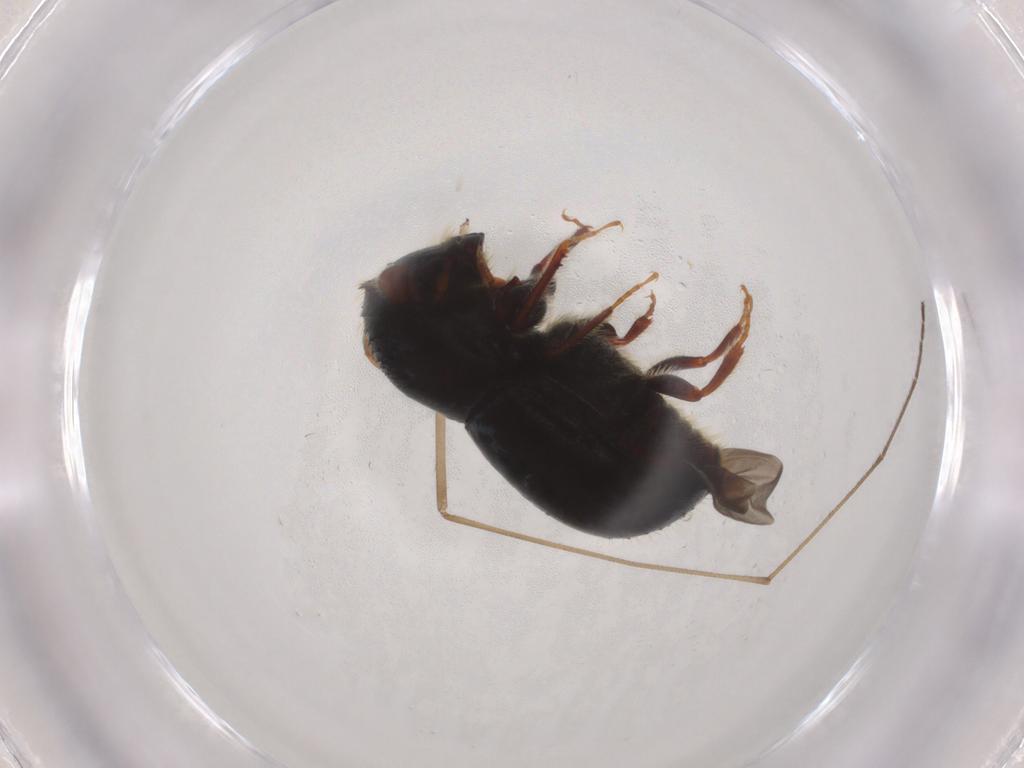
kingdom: Animalia
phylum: Arthropoda
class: Insecta
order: Coleoptera
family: Curculionidae
